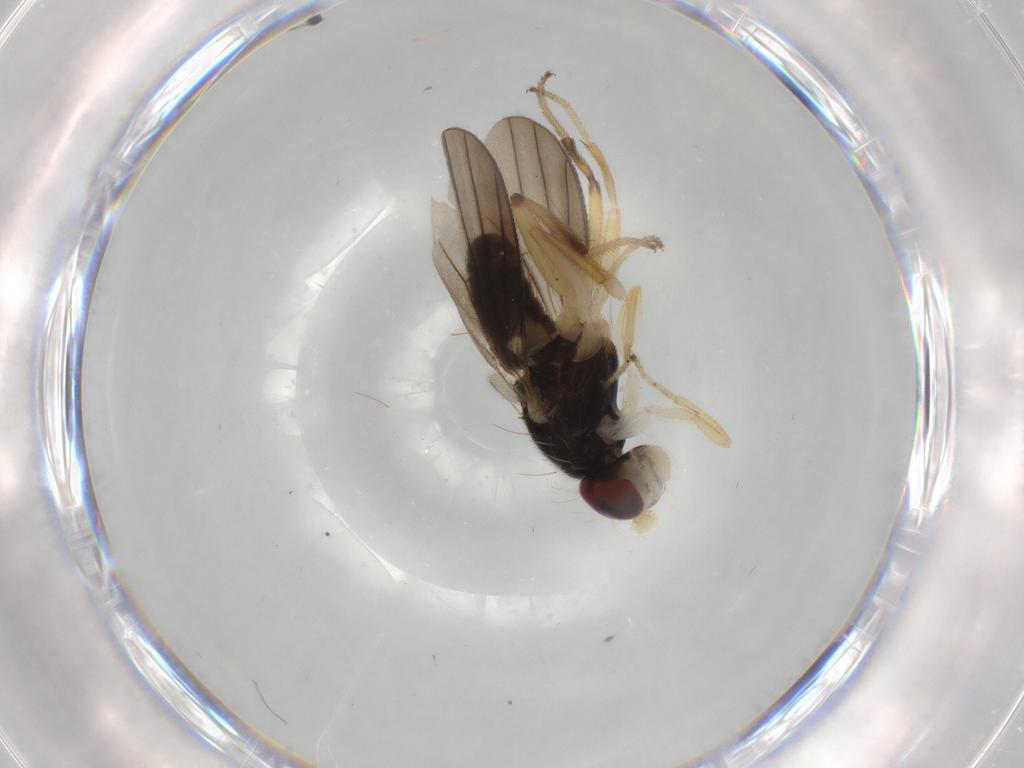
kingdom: Animalia
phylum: Arthropoda
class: Insecta
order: Diptera
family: Clusiidae
